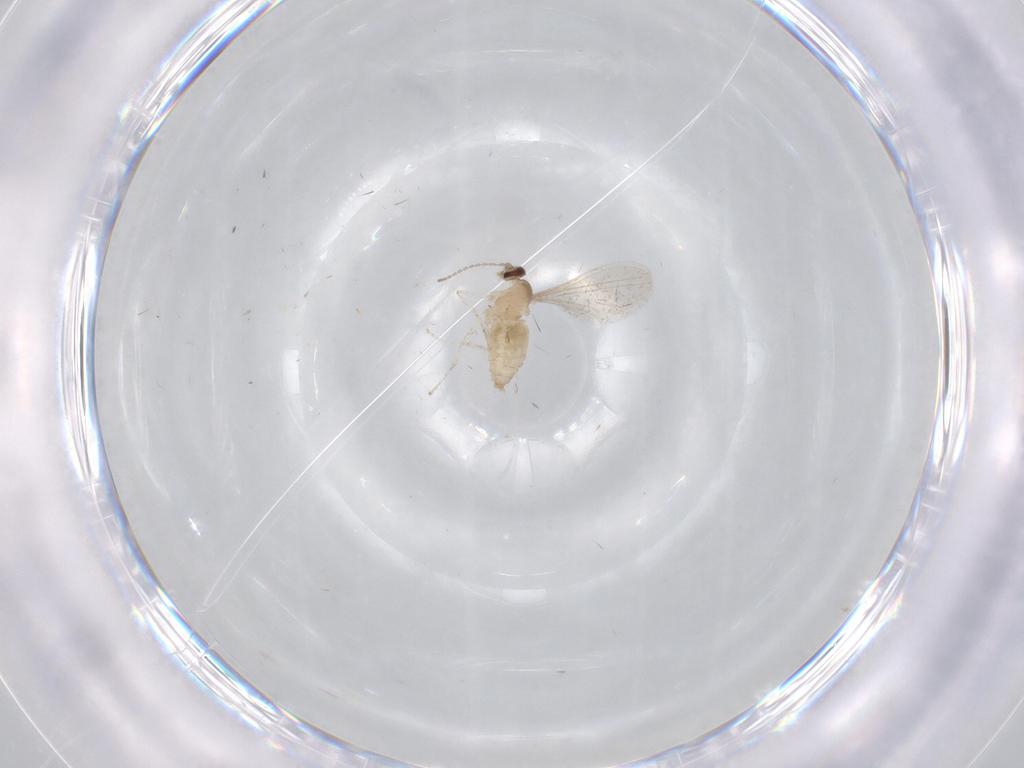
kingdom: Animalia
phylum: Arthropoda
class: Insecta
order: Diptera
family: Cecidomyiidae
